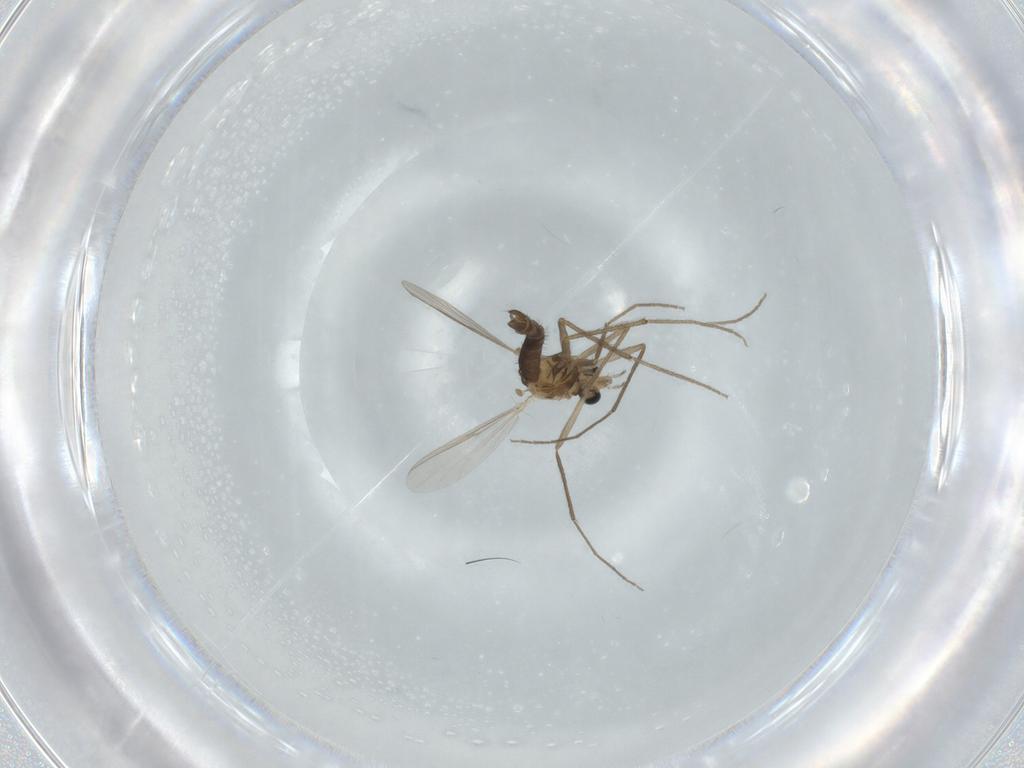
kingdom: Animalia
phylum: Arthropoda
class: Insecta
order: Diptera
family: Chironomidae
